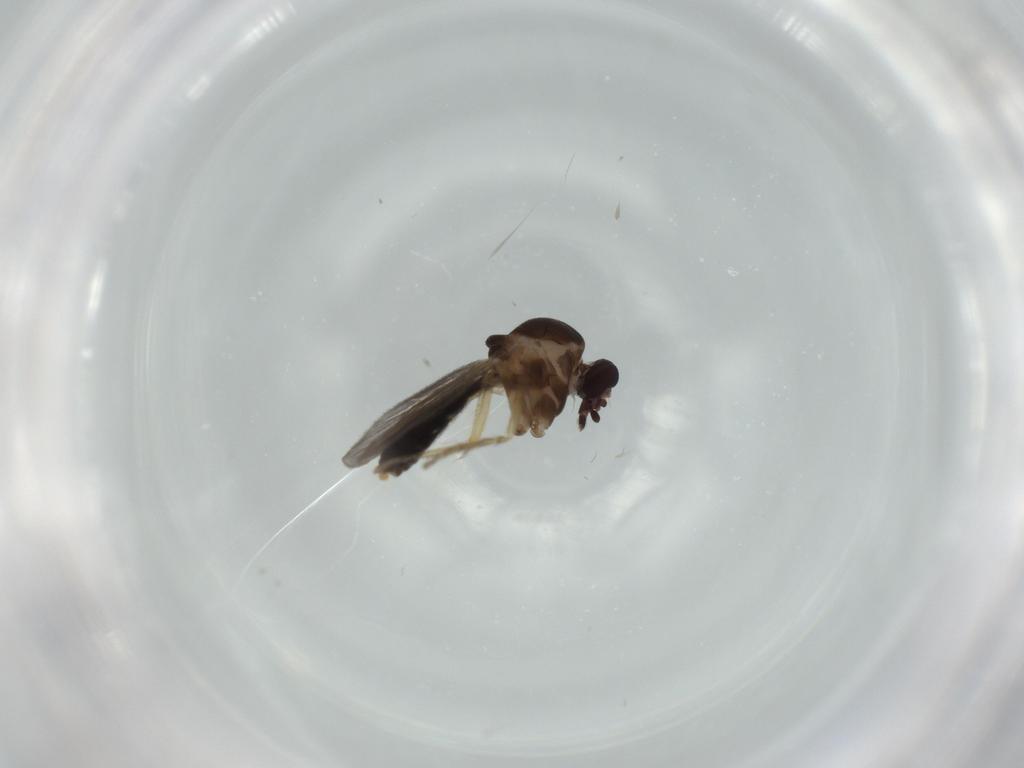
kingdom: Animalia
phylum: Arthropoda
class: Insecta
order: Diptera
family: Ceratopogonidae
